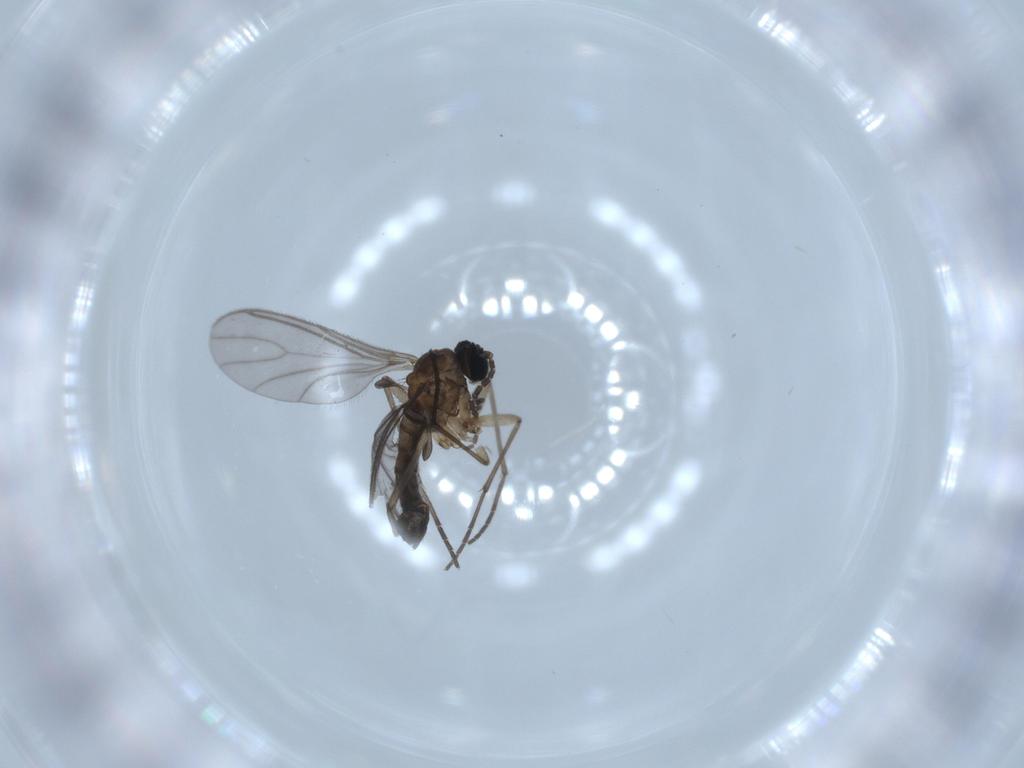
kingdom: Animalia
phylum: Arthropoda
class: Insecta
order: Diptera
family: Sciaridae
